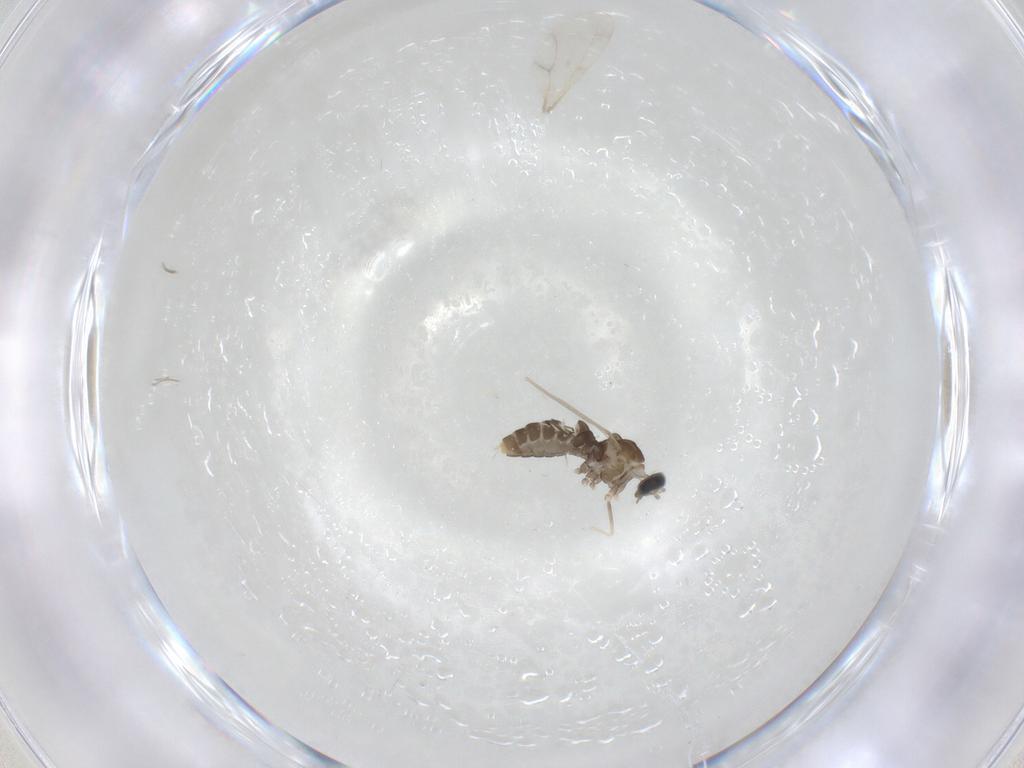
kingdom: Animalia
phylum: Arthropoda
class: Insecta
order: Diptera
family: Cecidomyiidae
